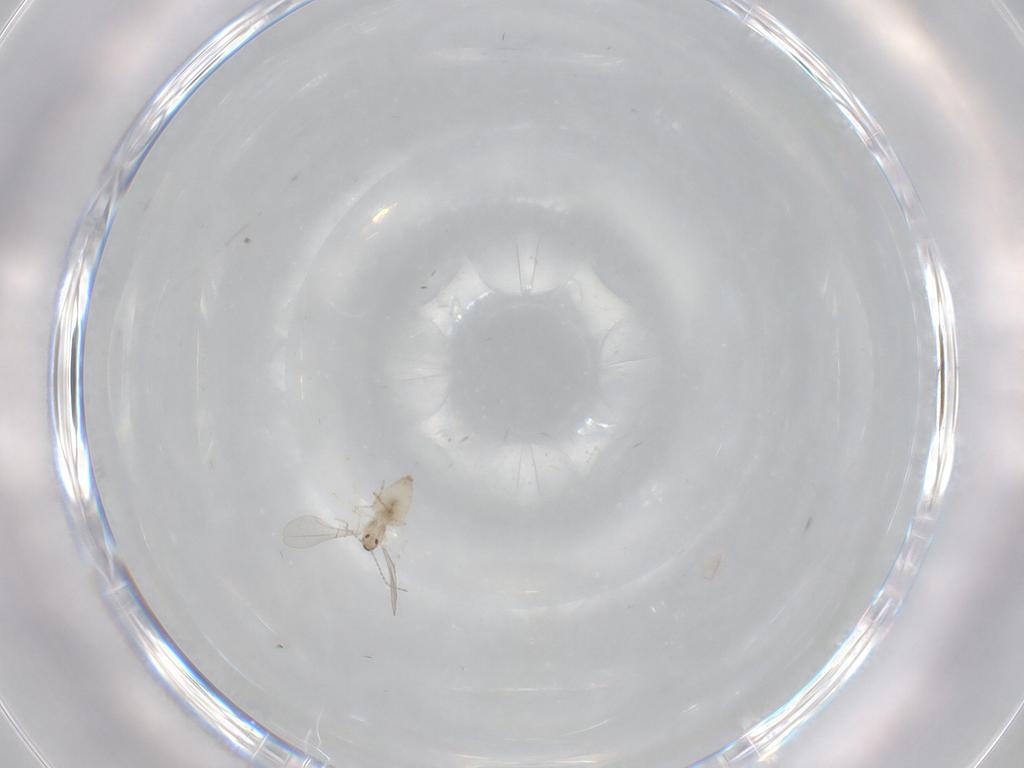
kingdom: Animalia
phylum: Arthropoda
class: Insecta
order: Diptera
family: Cecidomyiidae
